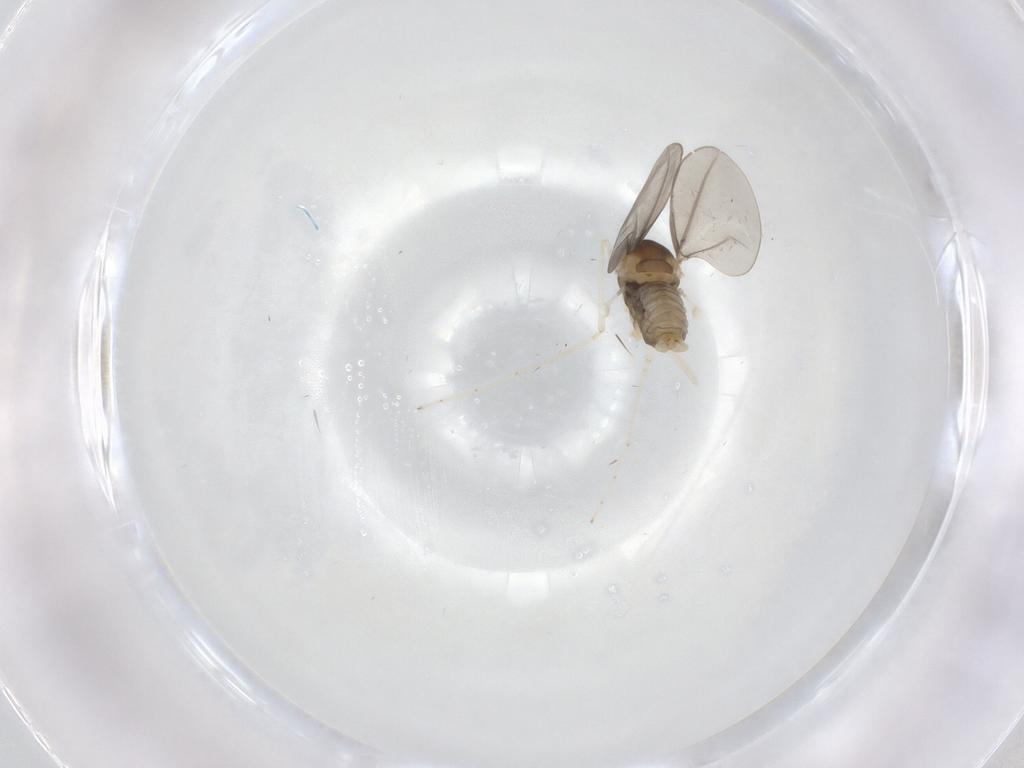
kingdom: Animalia
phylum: Arthropoda
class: Insecta
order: Diptera
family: Cecidomyiidae
